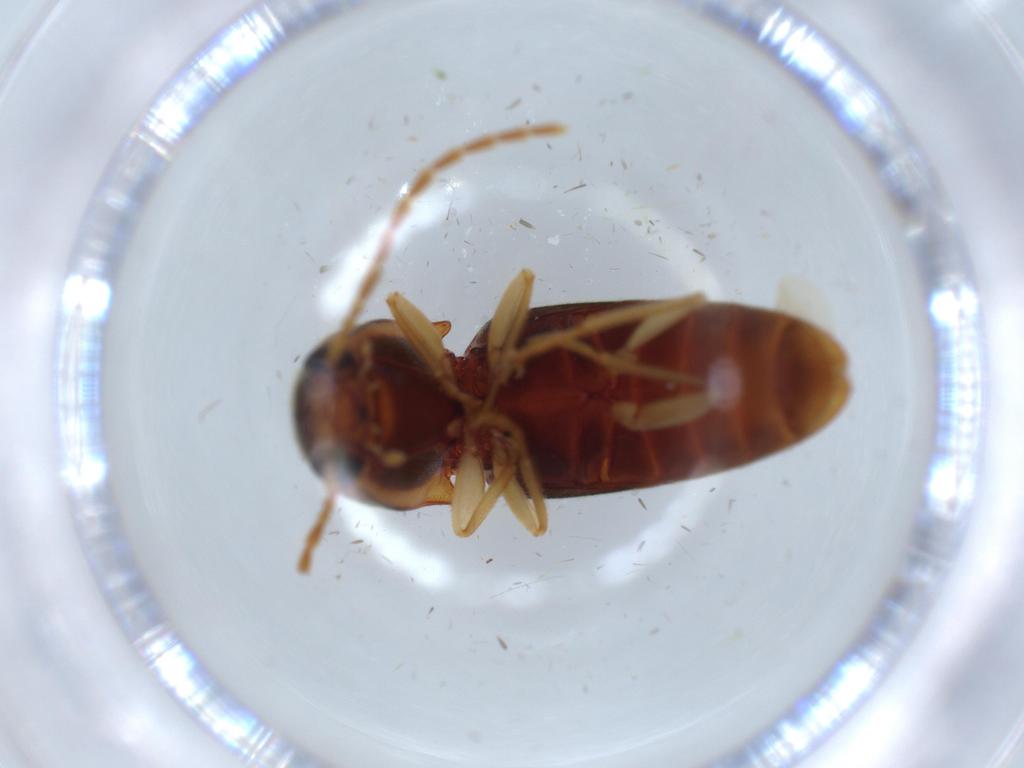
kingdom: Animalia
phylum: Arthropoda
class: Insecta
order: Coleoptera
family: Elateridae
